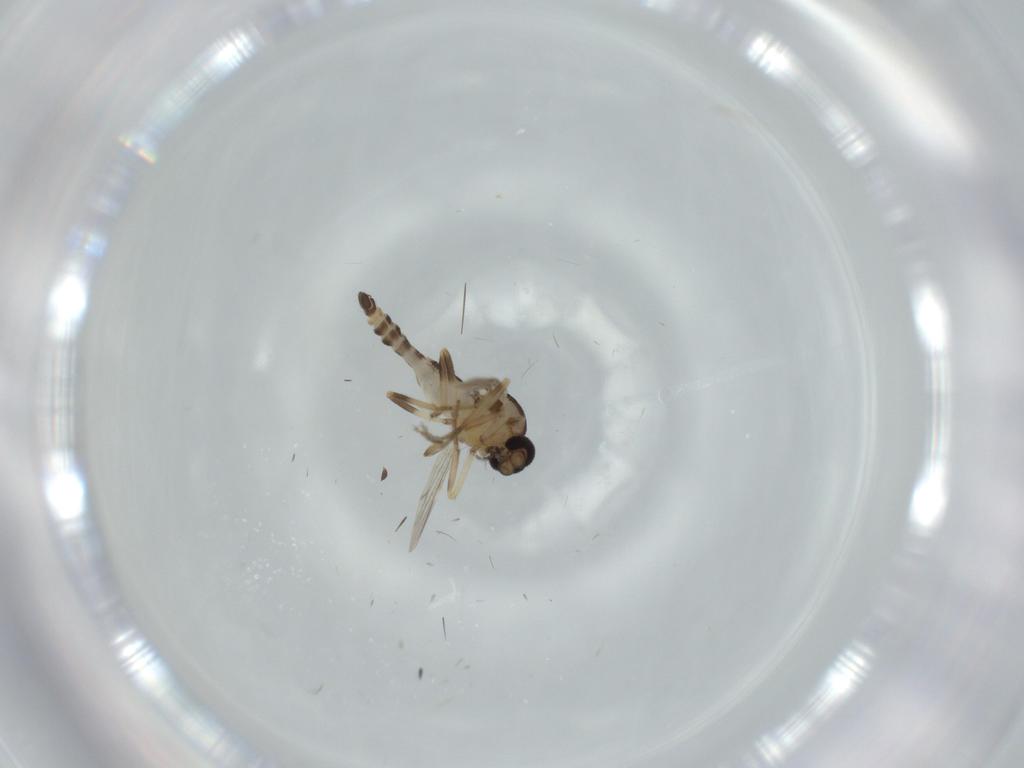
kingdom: Animalia
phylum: Arthropoda
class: Insecta
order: Diptera
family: Ceratopogonidae
